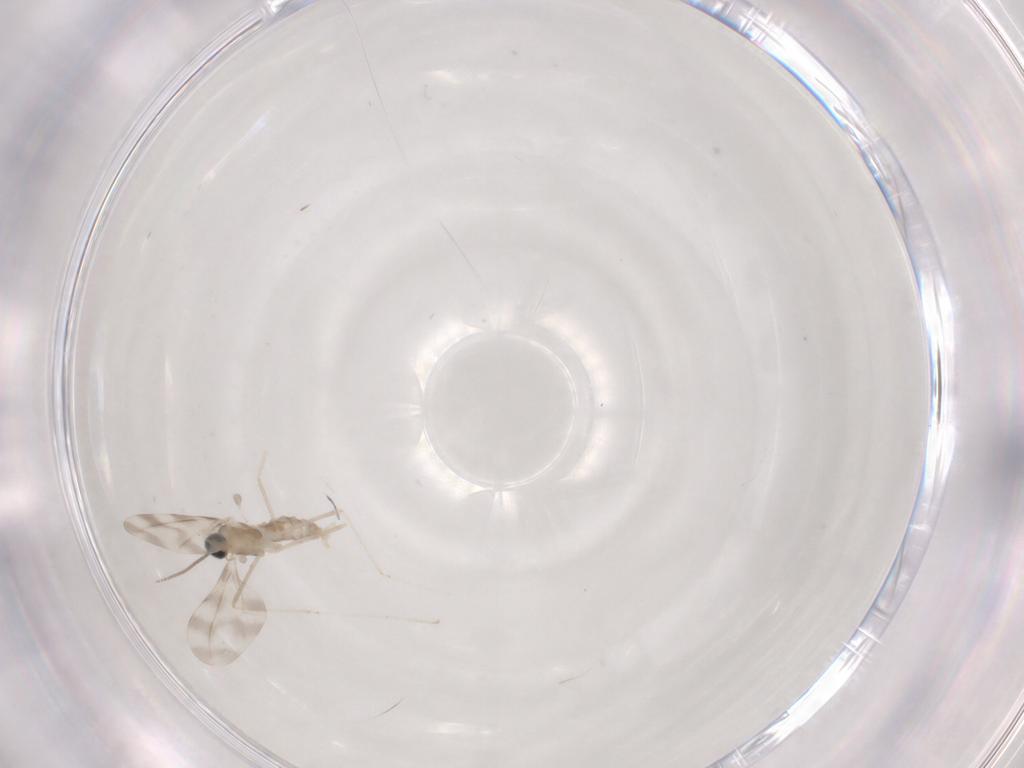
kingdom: Animalia
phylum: Arthropoda
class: Insecta
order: Diptera
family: Cecidomyiidae
